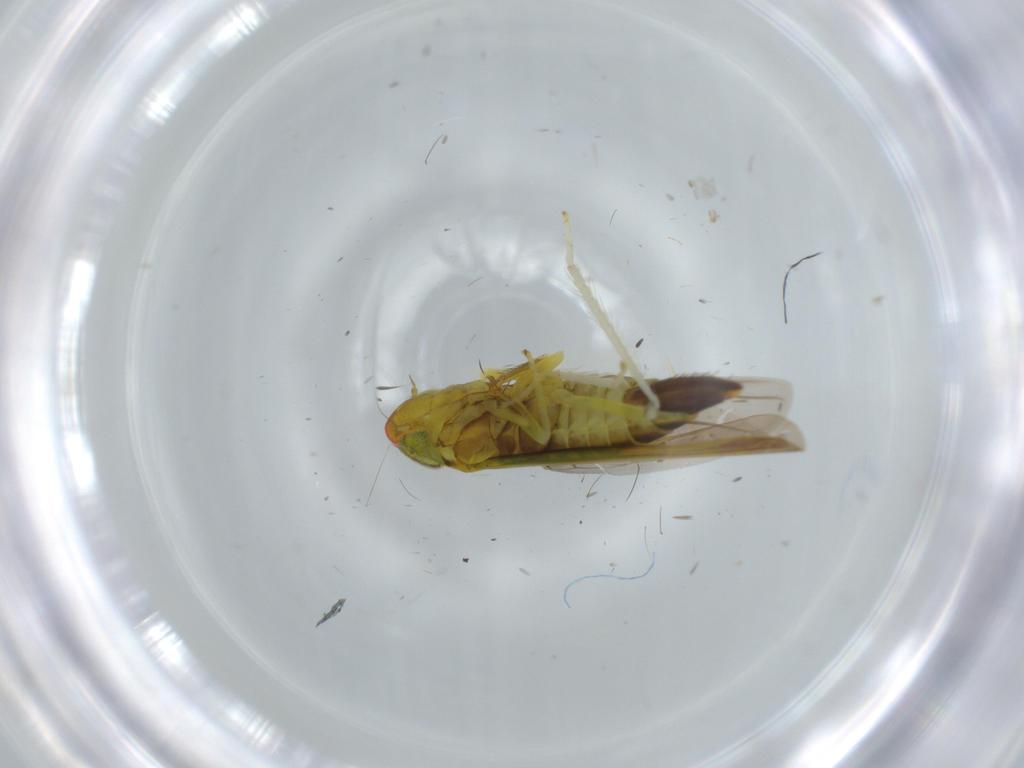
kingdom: Animalia
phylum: Arthropoda
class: Insecta
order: Hemiptera
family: Cicadellidae
